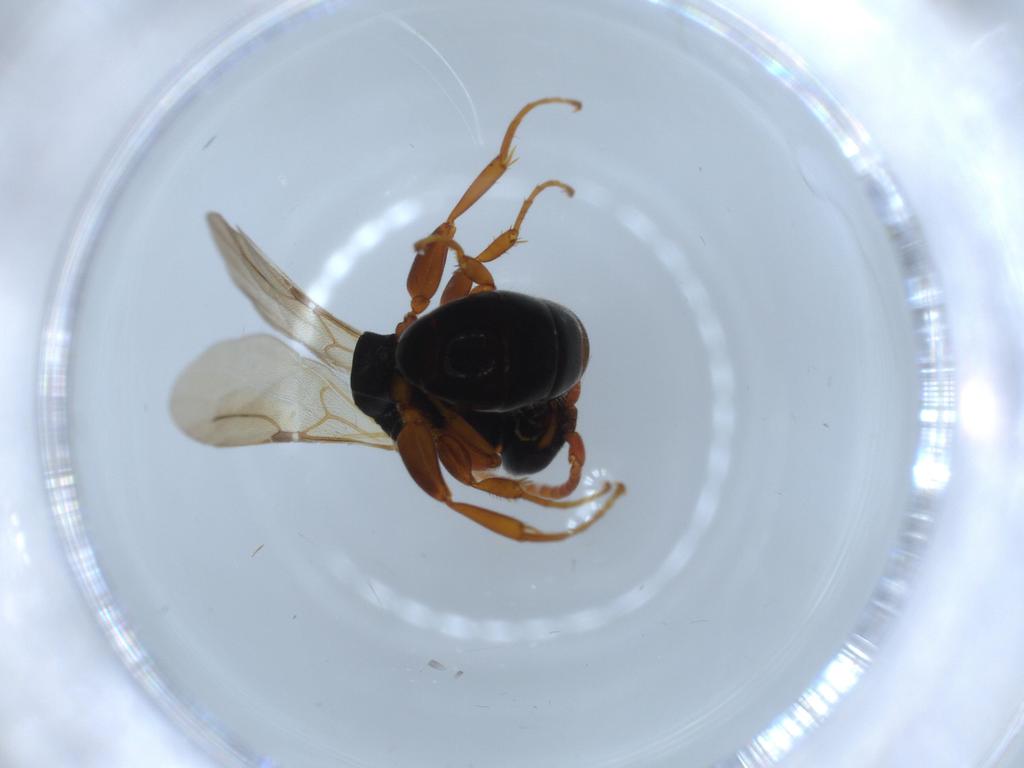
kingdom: Animalia
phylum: Arthropoda
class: Insecta
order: Hymenoptera
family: Bethylidae
